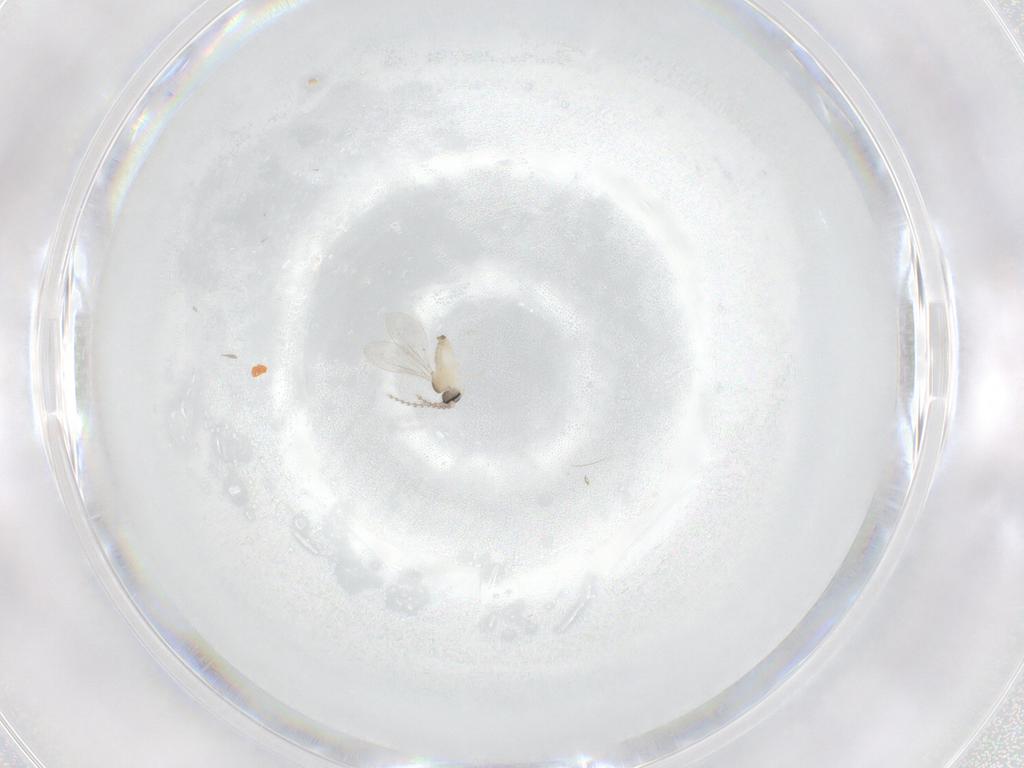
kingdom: Animalia
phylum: Arthropoda
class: Insecta
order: Diptera
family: Cecidomyiidae
